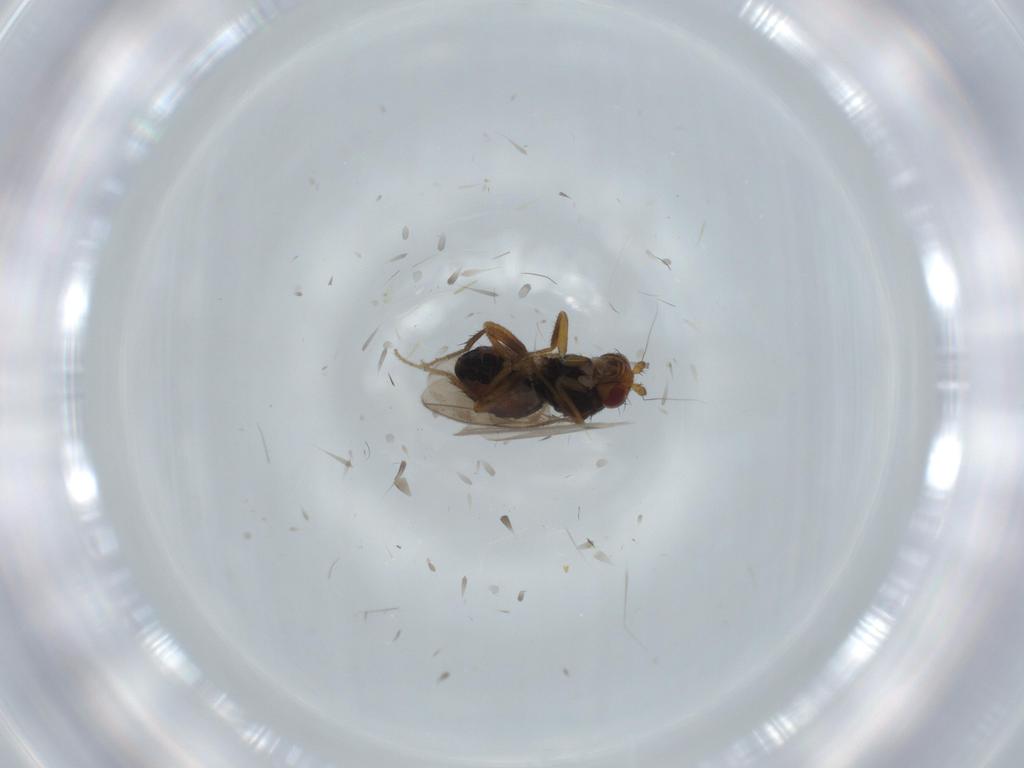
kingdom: Animalia
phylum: Arthropoda
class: Insecta
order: Diptera
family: Sphaeroceridae
